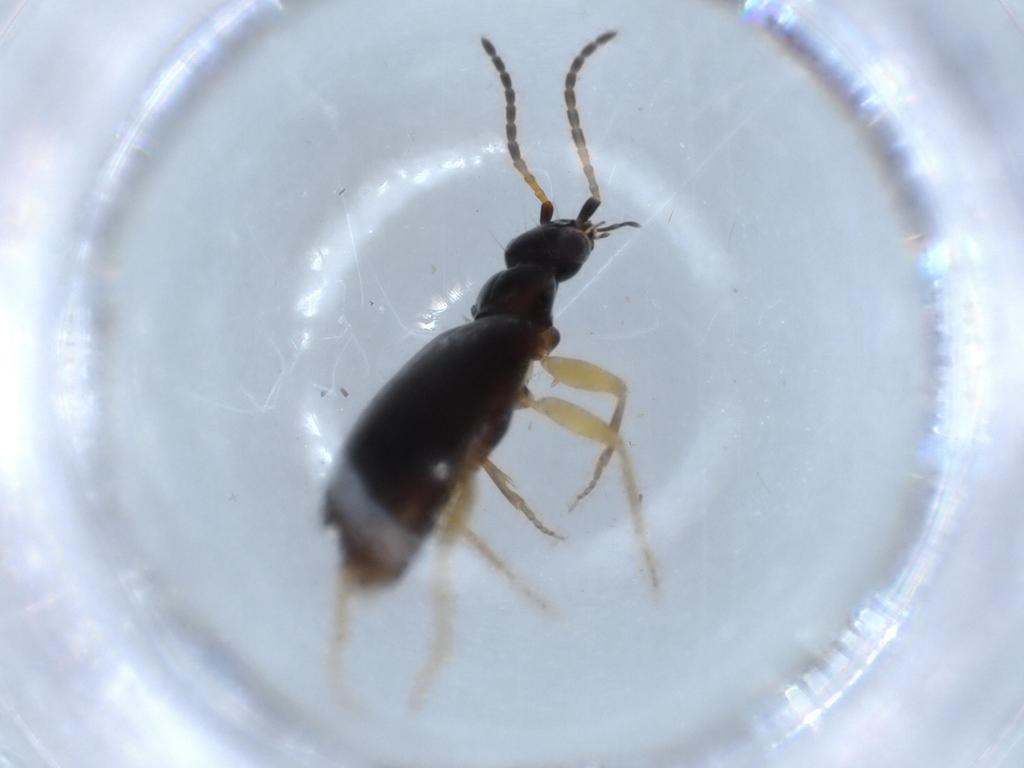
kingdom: Animalia
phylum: Arthropoda
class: Insecta
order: Coleoptera
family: Carabidae
